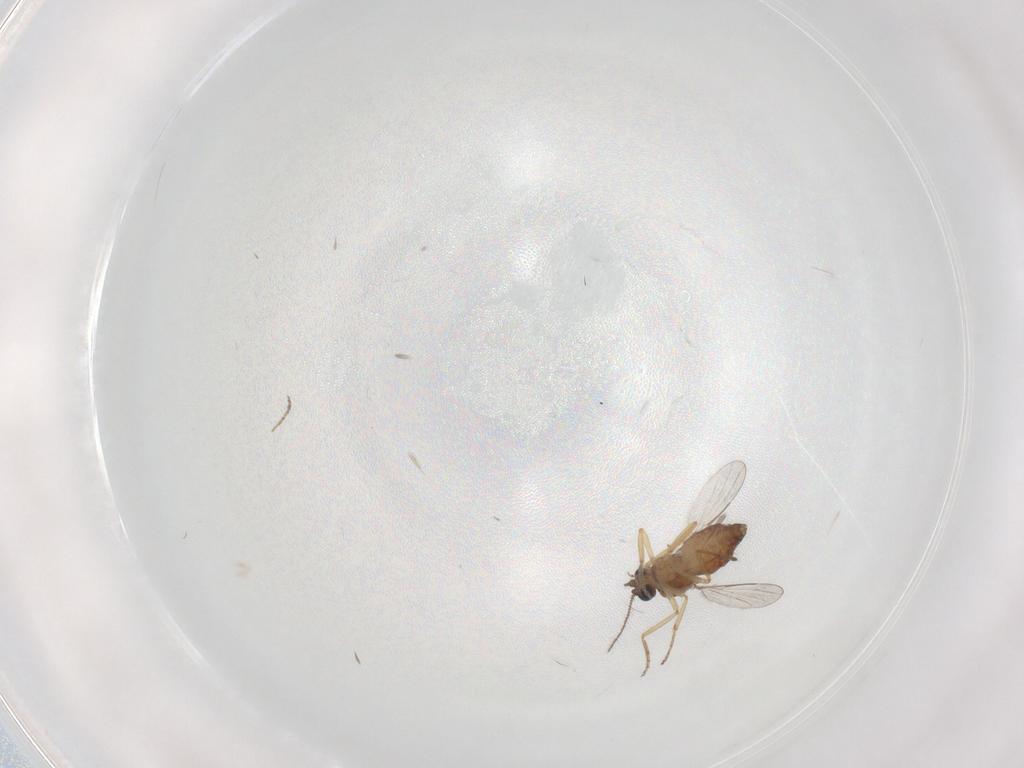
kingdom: Animalia
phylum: Arthropoda
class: Insecta
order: Diptera
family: Ceratopogonidae
